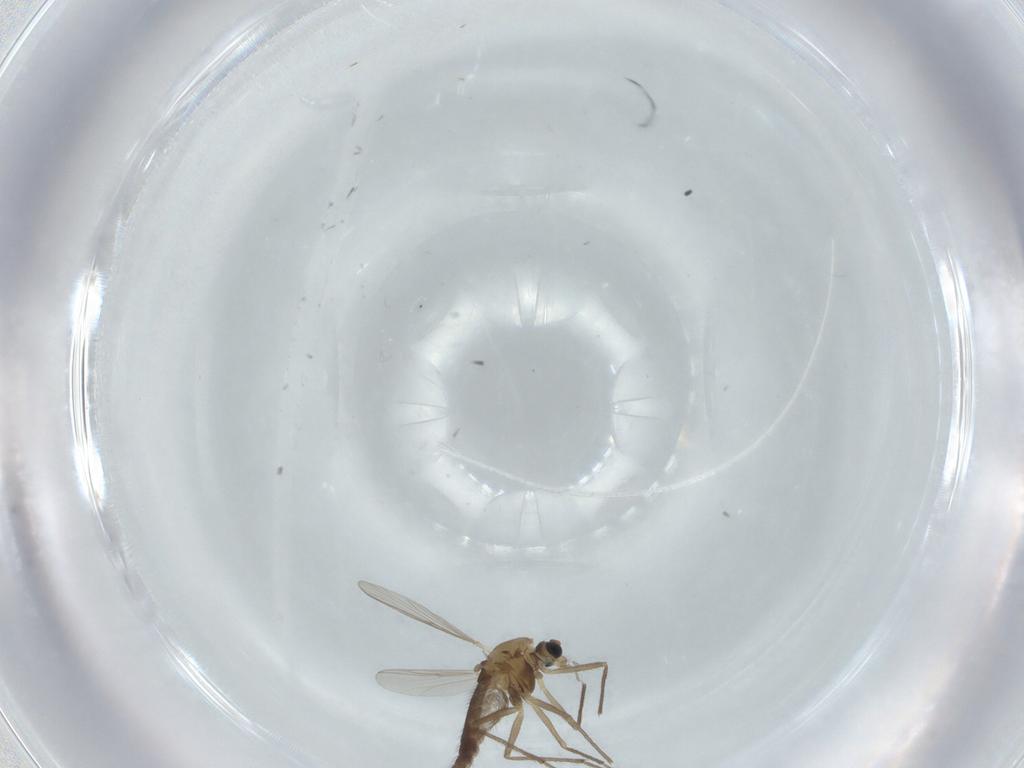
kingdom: Animalia
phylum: Arthropoda
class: Insecta
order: Diptera
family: Chironomidae
